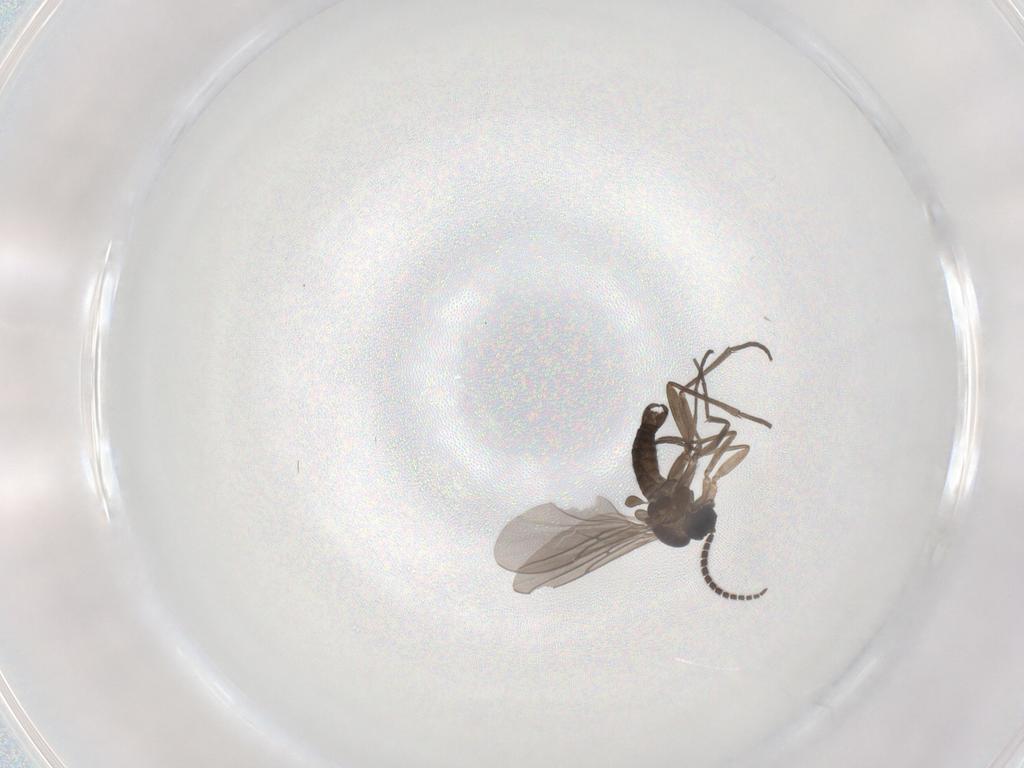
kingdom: Animalia
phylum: Arthropoda
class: Insecta
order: Diptera
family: Sciaridae
